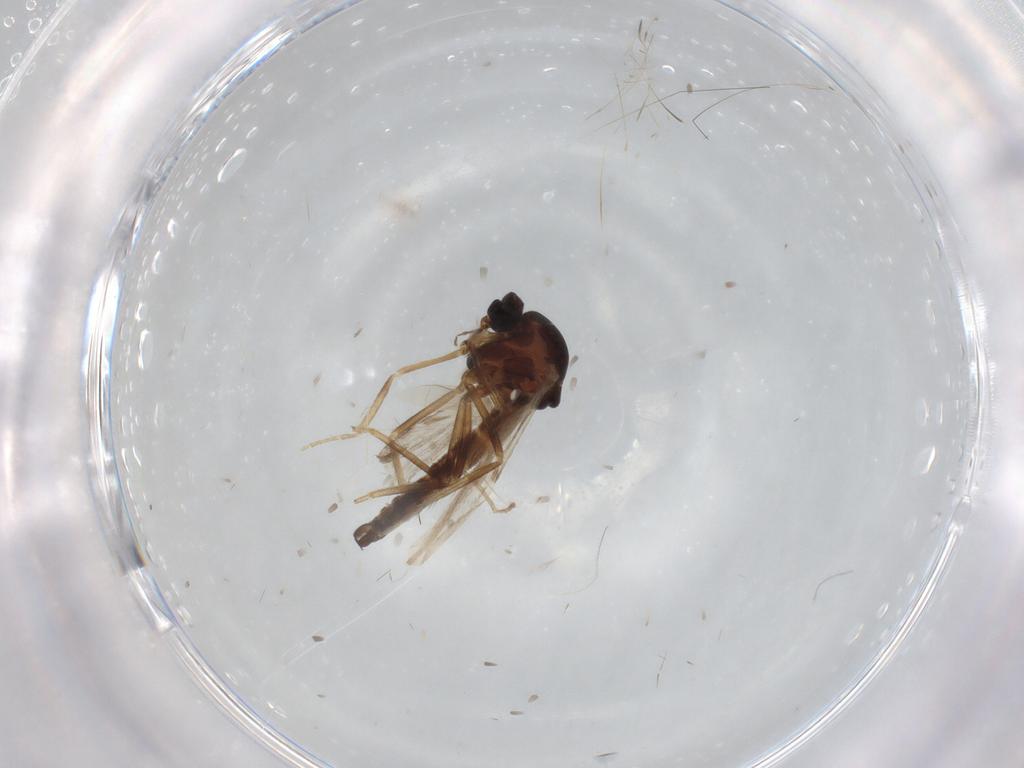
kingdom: Animalia
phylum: Arthropoda
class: Insecta
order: Diptera
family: Ceratopogonidae
